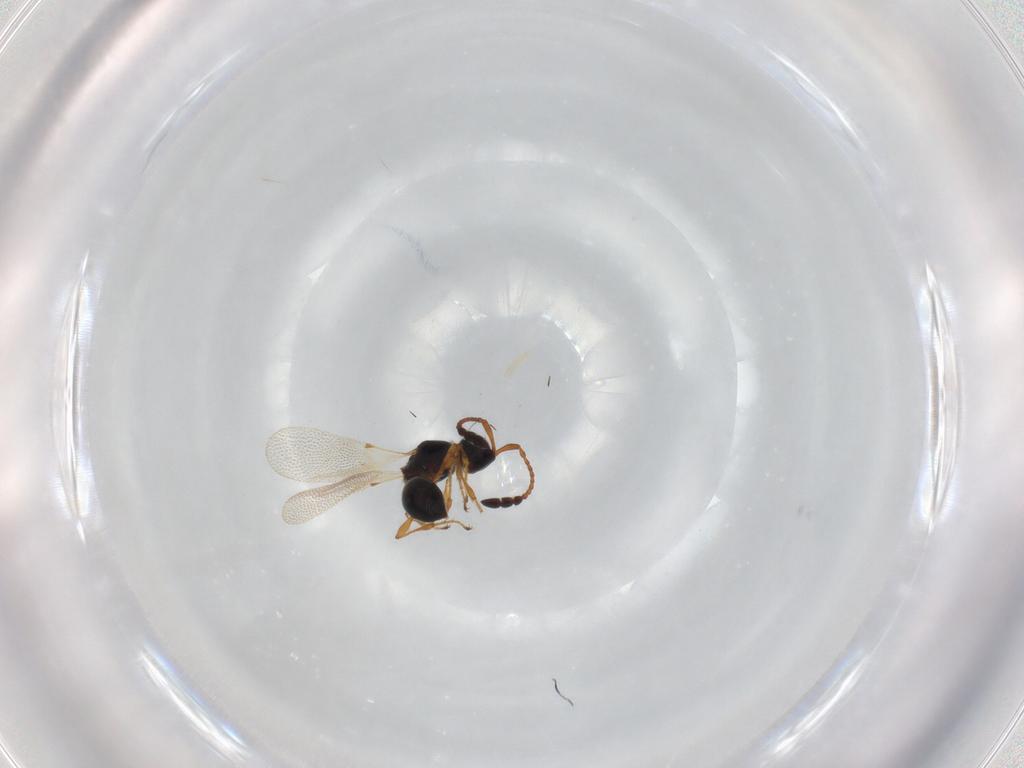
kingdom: Animalia
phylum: Arthropoda
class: Insecta
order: Hymenoptera
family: Diapriidae
